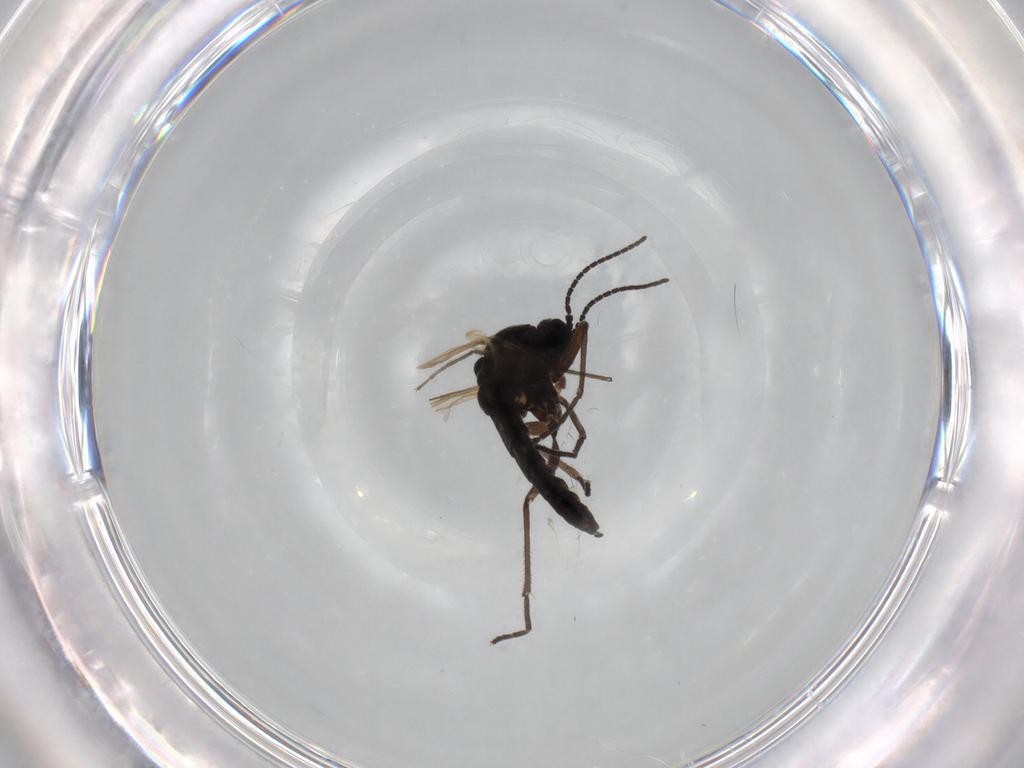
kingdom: Animalia
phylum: Arthropoda
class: Insecta
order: Diptera
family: Sciaridae
